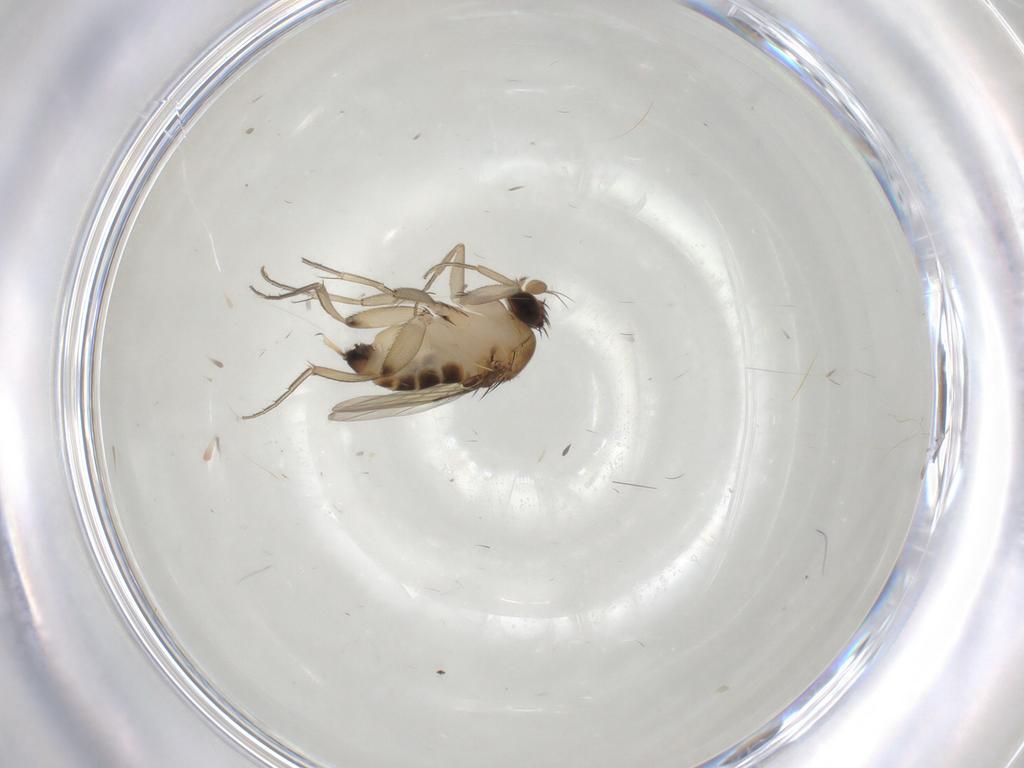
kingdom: Animalia
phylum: Arthropoda
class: Insecta
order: Diptera
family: Phoridae
